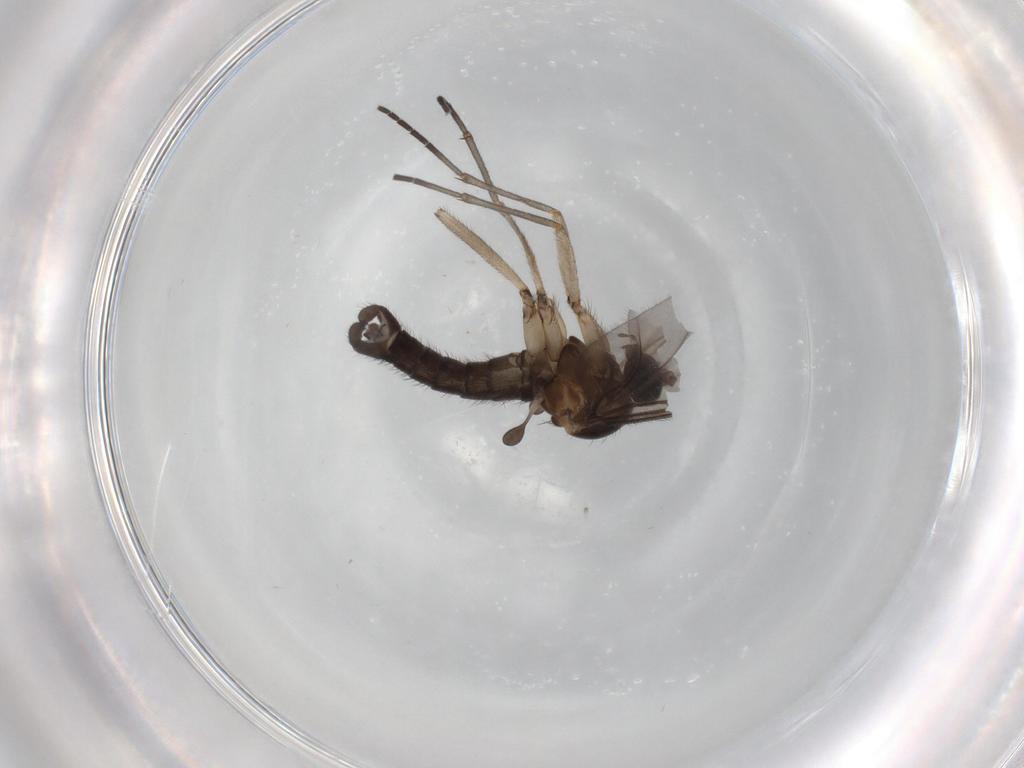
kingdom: Animalia
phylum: Arthropoda
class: Insecta
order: Diptera
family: Sciaridae
